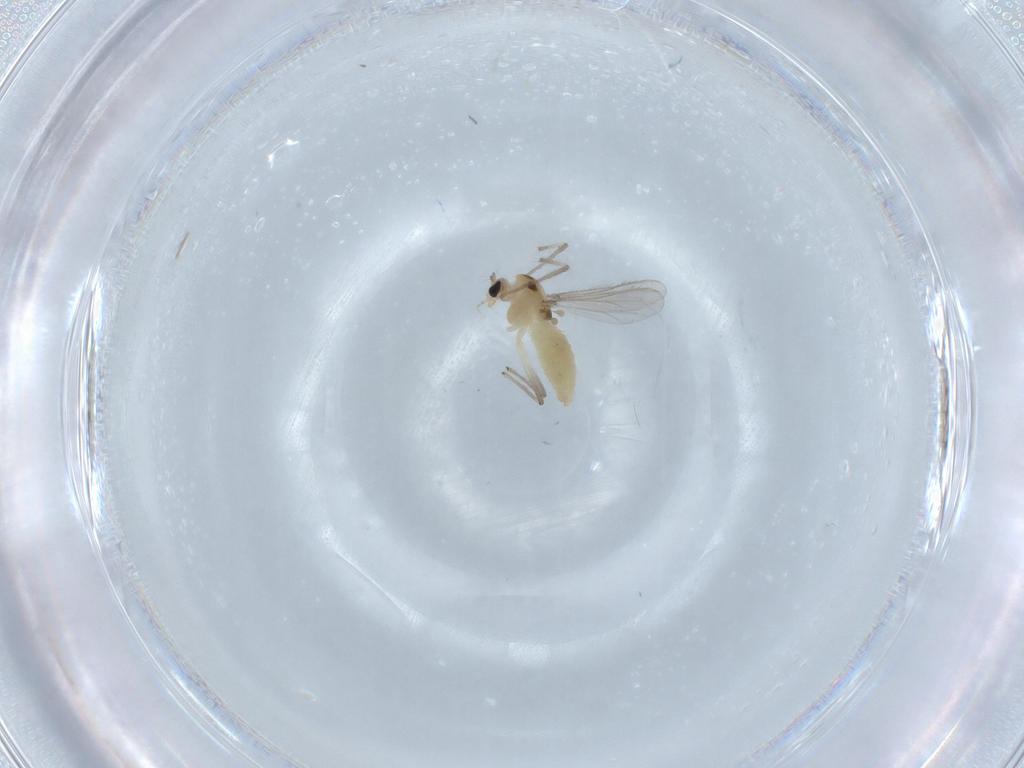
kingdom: Animalia
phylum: Arthropoda
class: Insecta
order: Diptera
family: Chironomidae
